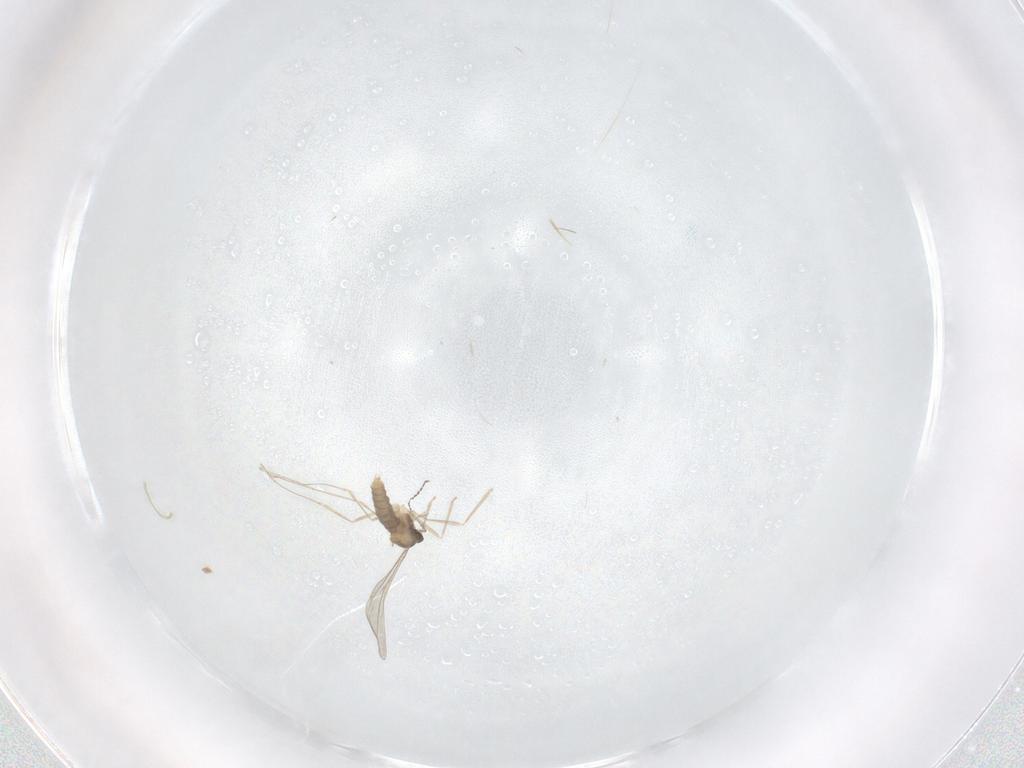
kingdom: Animalia
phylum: Arthropoda
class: Insecta
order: Diptera
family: Cecidomyiidae
